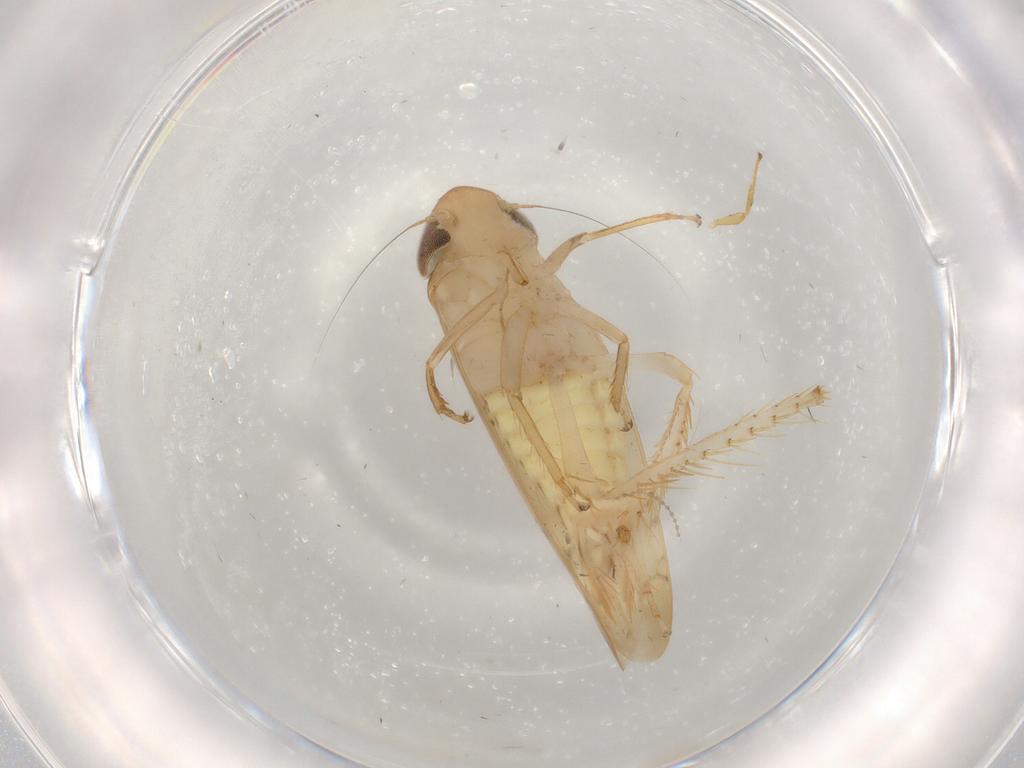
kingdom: Animalia
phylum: Arthropoda
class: Insecta
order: Hemiptera
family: Cicadellidae
